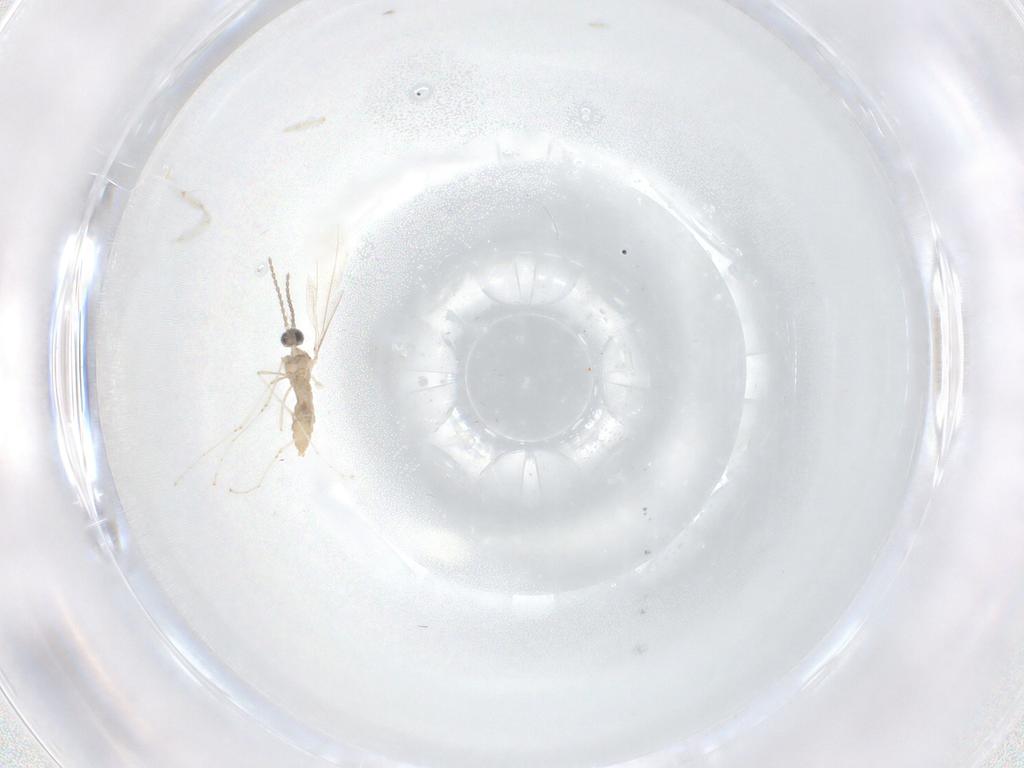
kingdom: Animalia
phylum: Arthropoda
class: Insecta
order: Diptera
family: Cecidomyiidae
